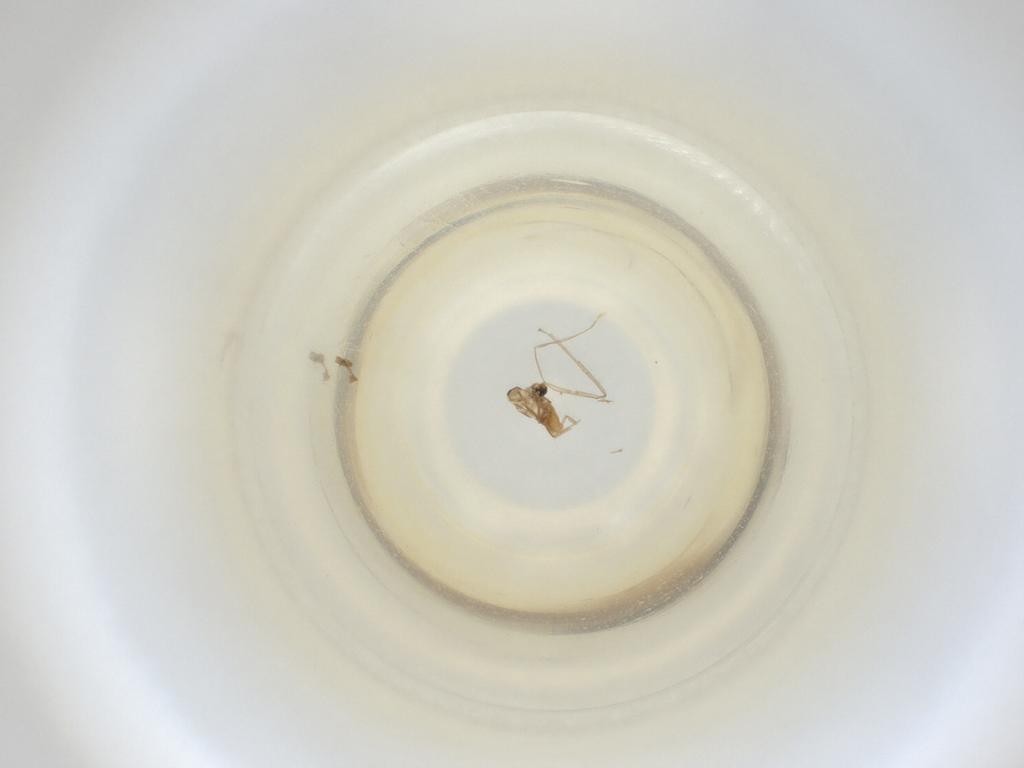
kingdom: Animalia
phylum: Arthropoda
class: Insecta
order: Diptera
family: Cecidomyiidae
